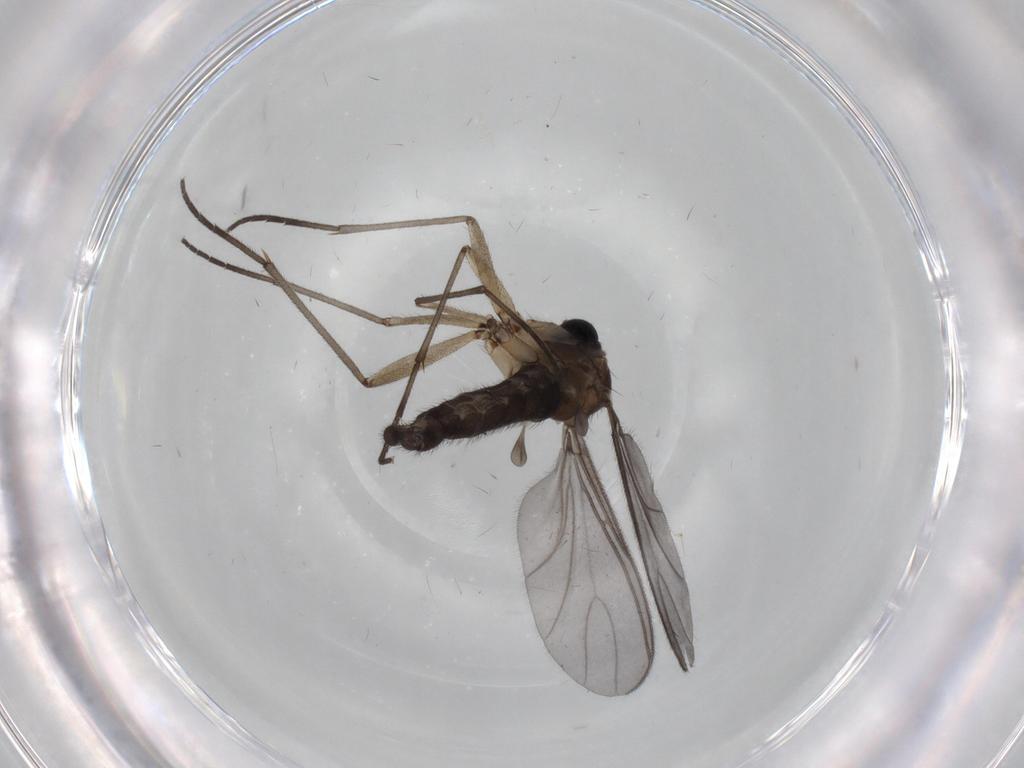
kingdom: Animalia
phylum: Arthropoda
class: Insecta
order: Diptera
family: Sciaridae
